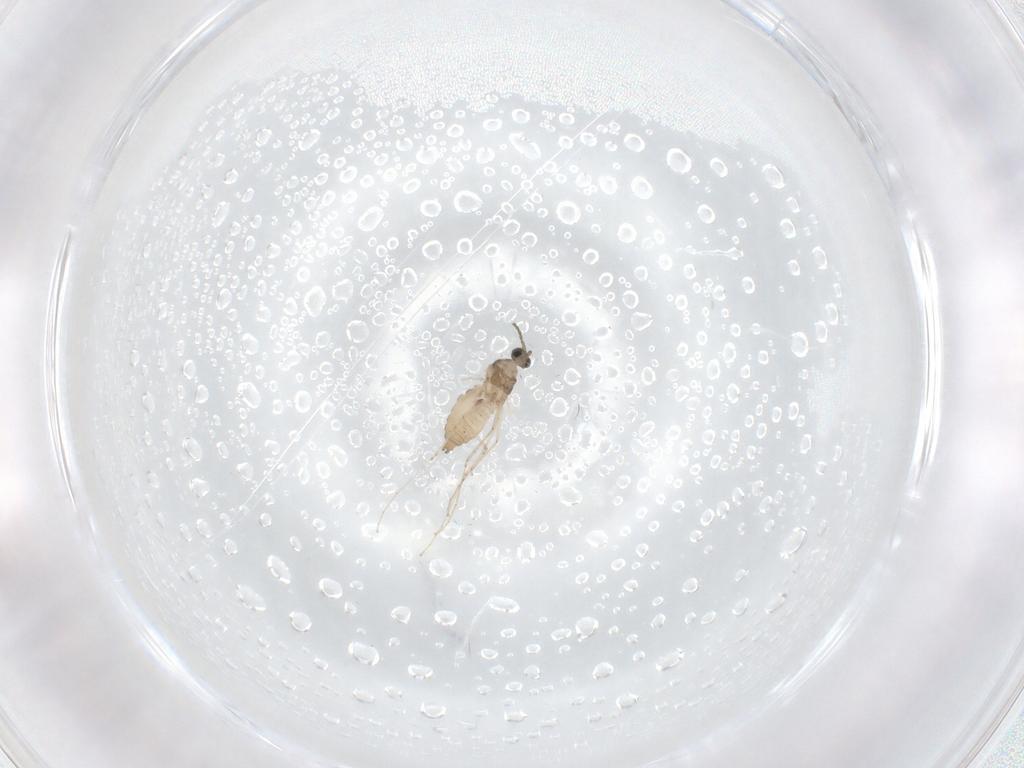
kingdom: Animalia
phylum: Arthropoda
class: Insecta
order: Diptera
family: Cecidomyiidae
